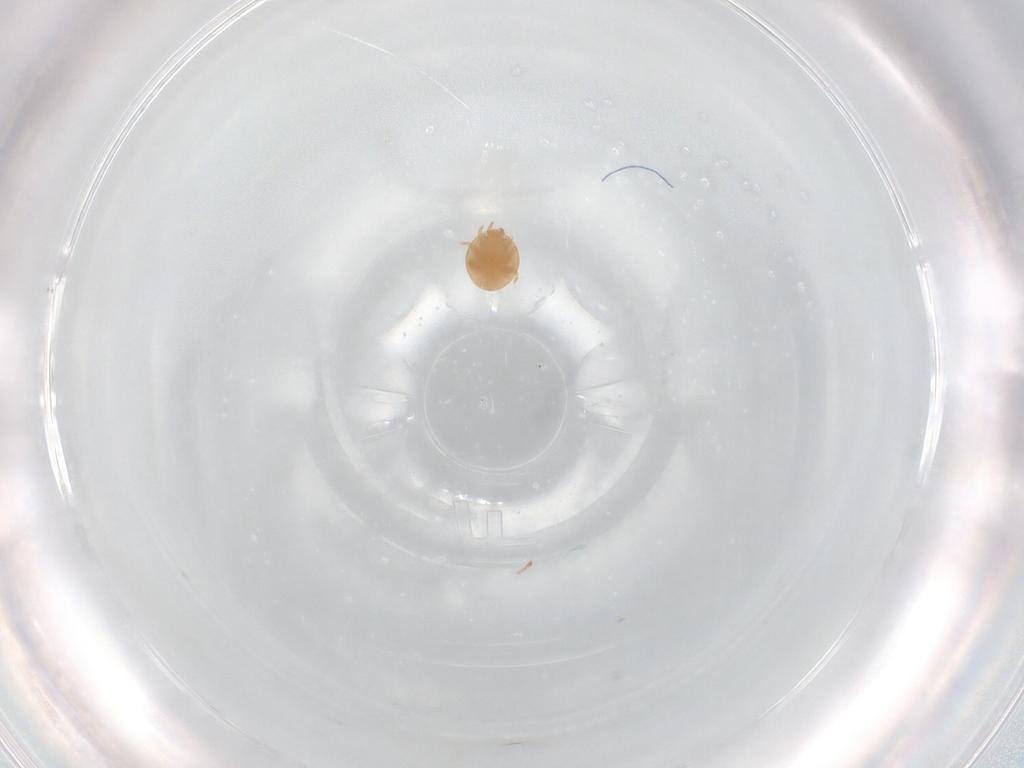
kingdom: Animalia
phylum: Arthropoda
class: Arachnida
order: Mesostigmata
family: Trematuridae
